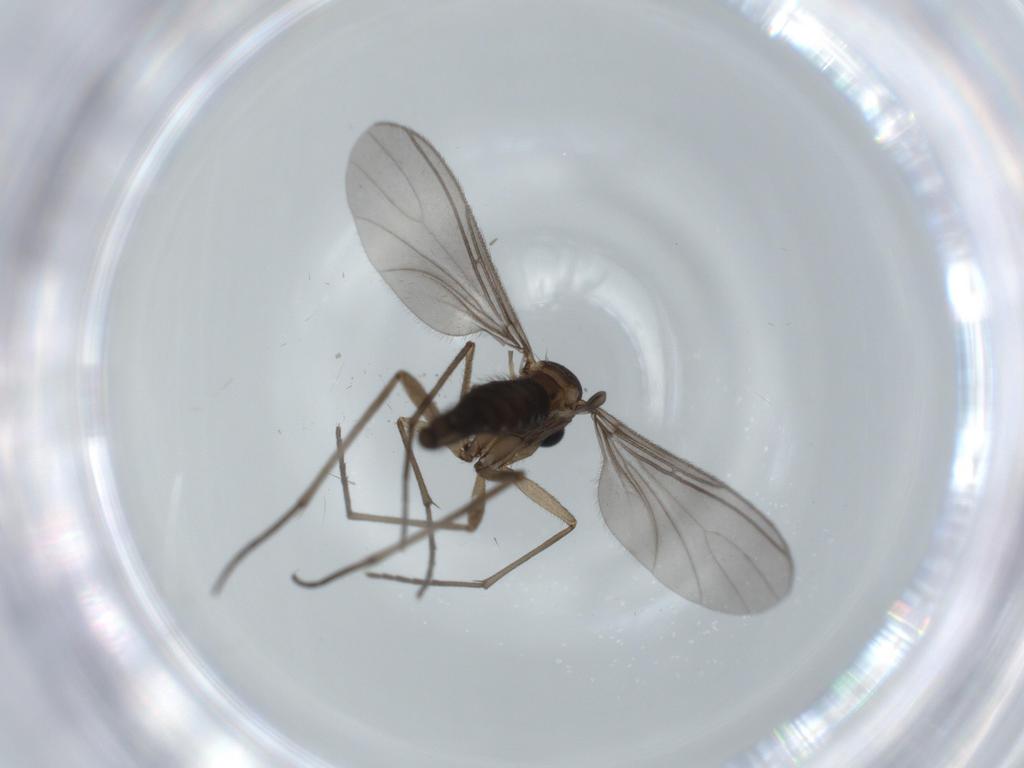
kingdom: Animalia
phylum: Arthropoda
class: Insecta
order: Diptera
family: Sciaridae
